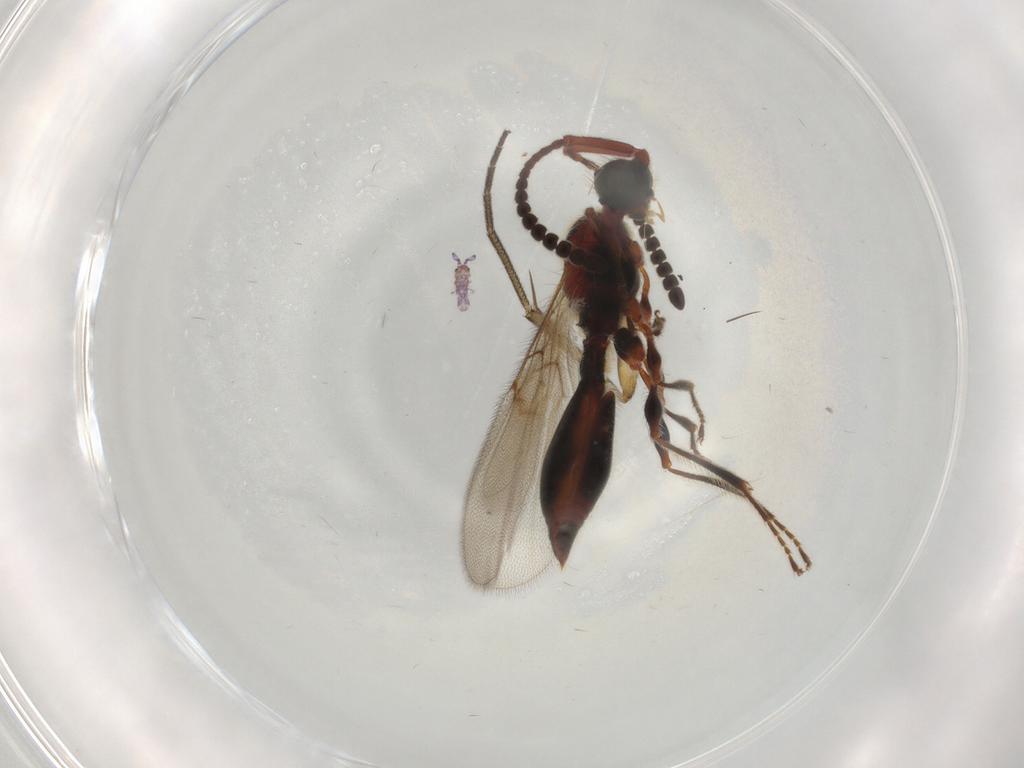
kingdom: Animalia
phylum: Arthropoda
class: Insecta
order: Hymenoptera
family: Diapriidae
